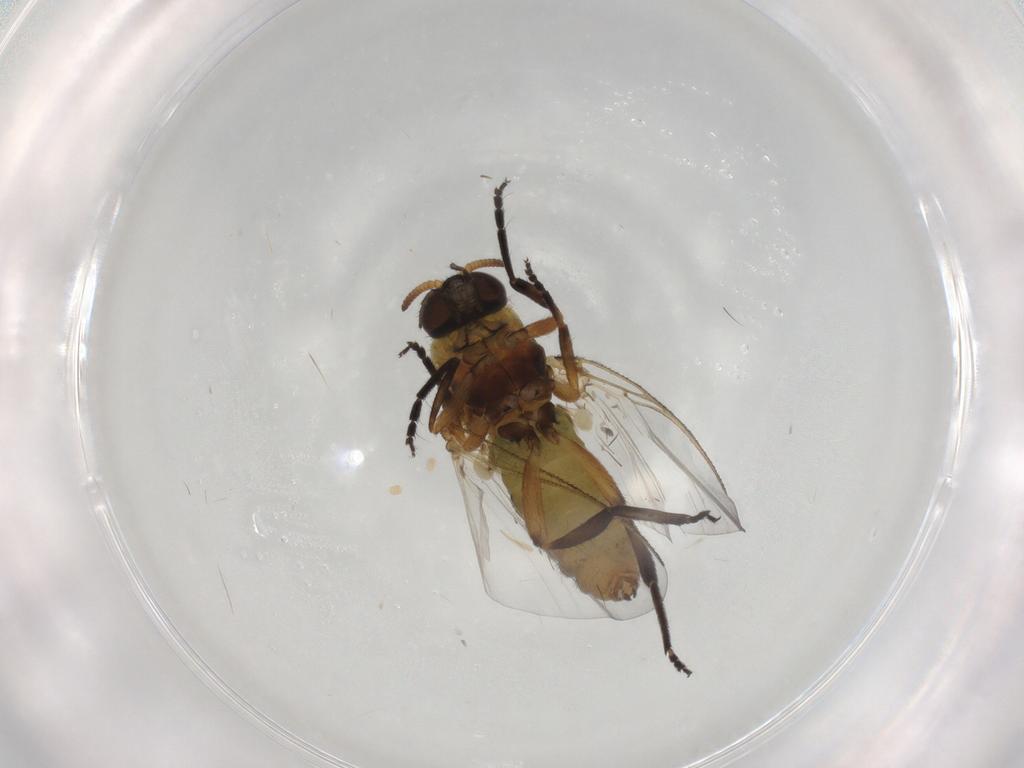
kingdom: Animalia
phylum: Arthropoda
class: Insecta
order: Diptera
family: Simuliidae
